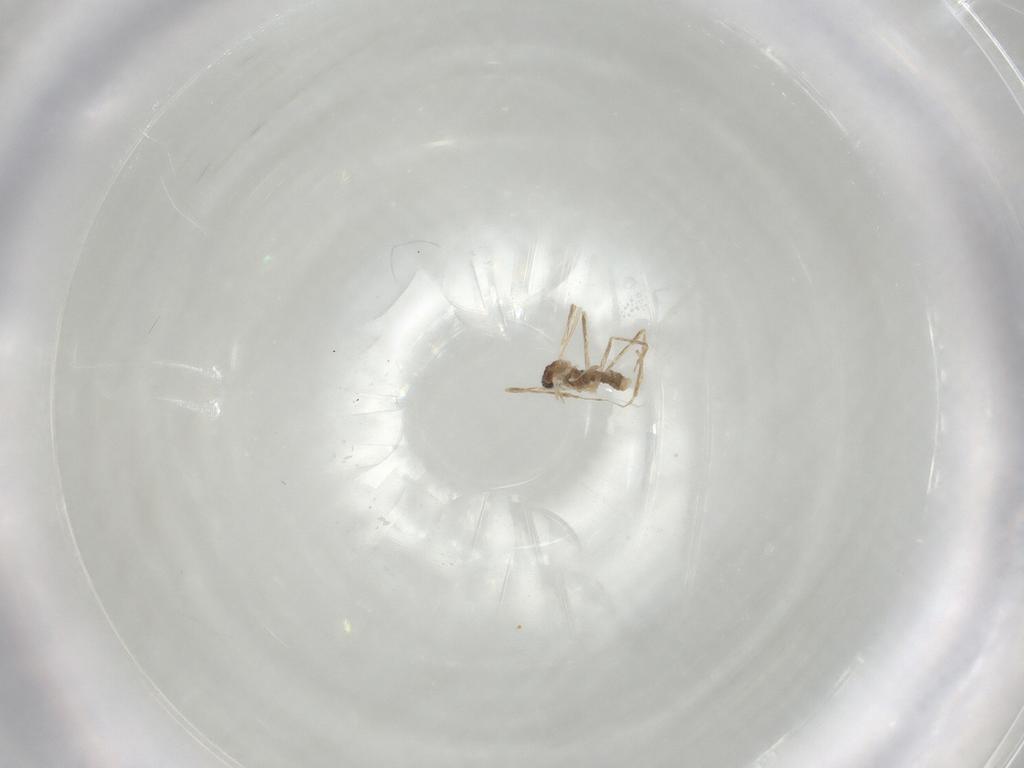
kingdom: Animalia
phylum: Arthropoda
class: Insecta
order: Diptera
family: Cecidomyiidae
